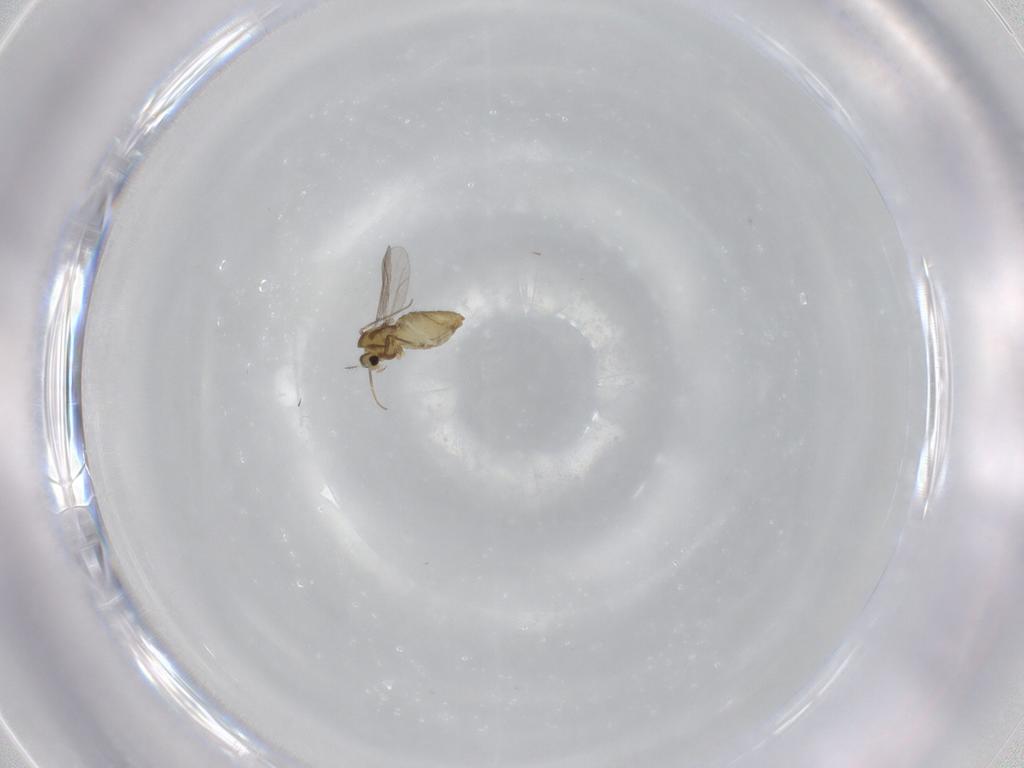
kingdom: Animalia
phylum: Arthropoda
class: Insecta
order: Diptera
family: Chironomidae
